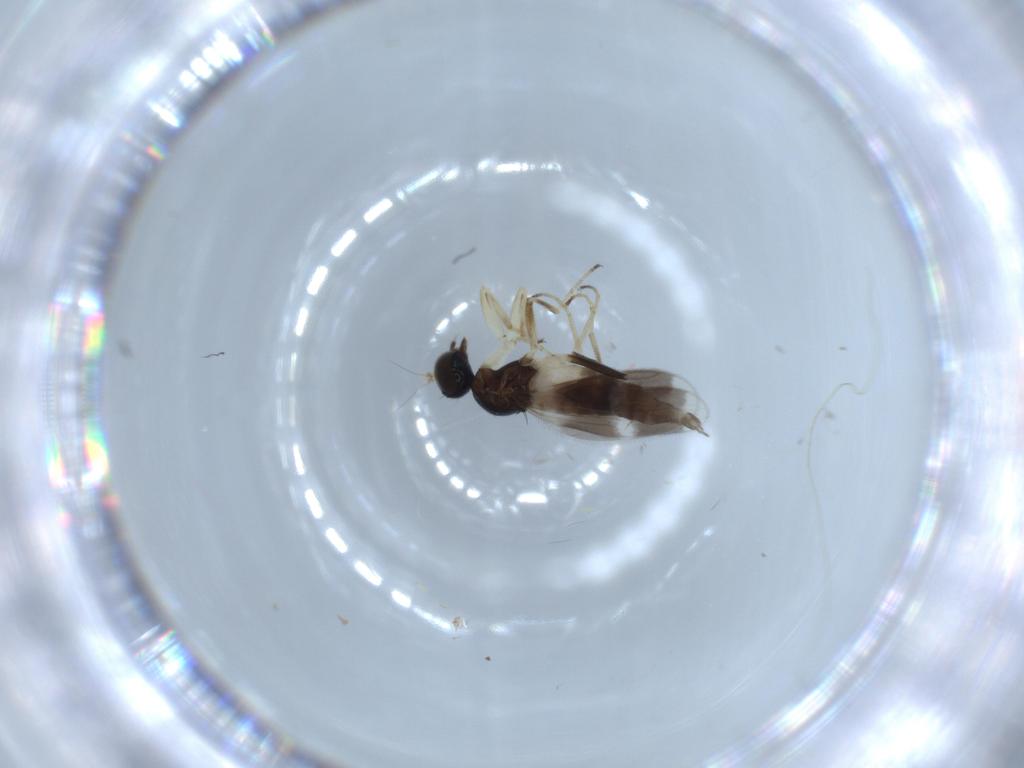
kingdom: Animalia
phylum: Arthropoda
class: Insecta
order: Diptera
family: Hybotidae
